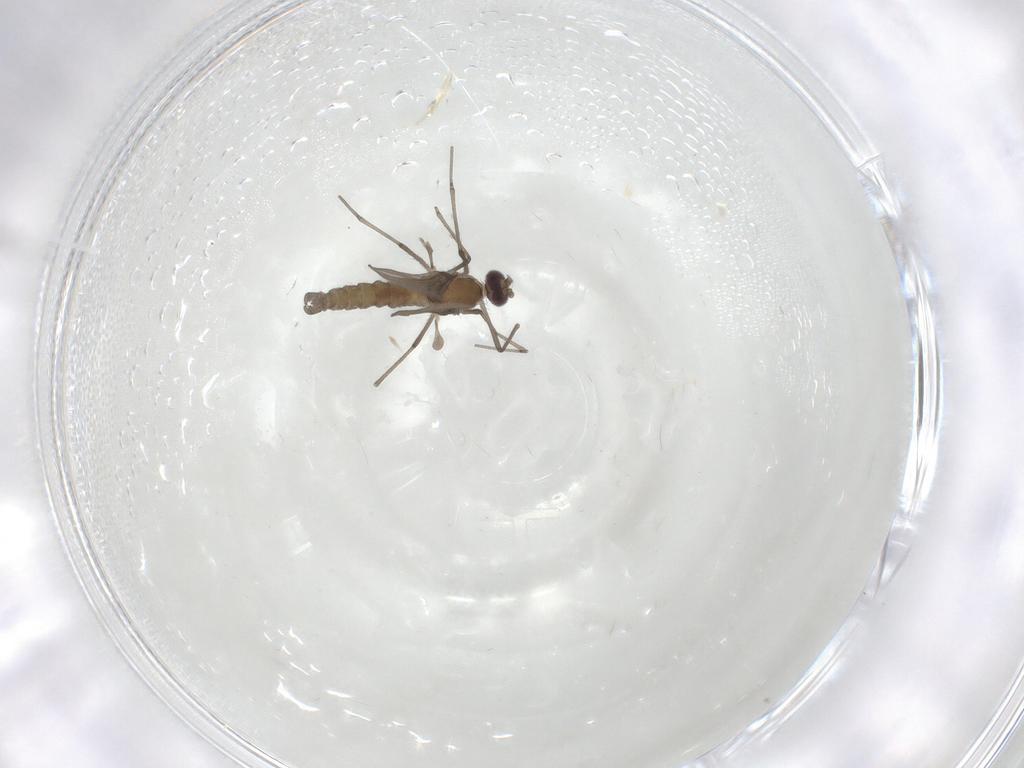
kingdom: Animalia
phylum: Arthropoda
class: Insecta
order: Diptera
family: Cecidomyiidae
